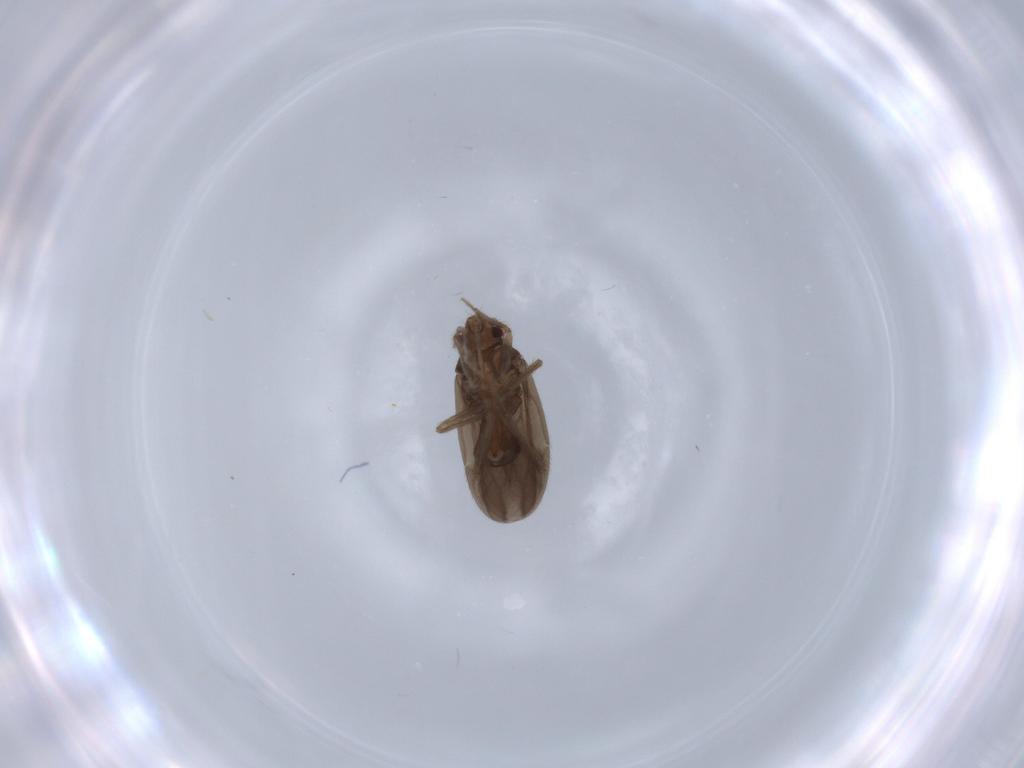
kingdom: Animalia
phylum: Arthropoda
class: Insecta
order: Hemiptera
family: Ceratocombidae
